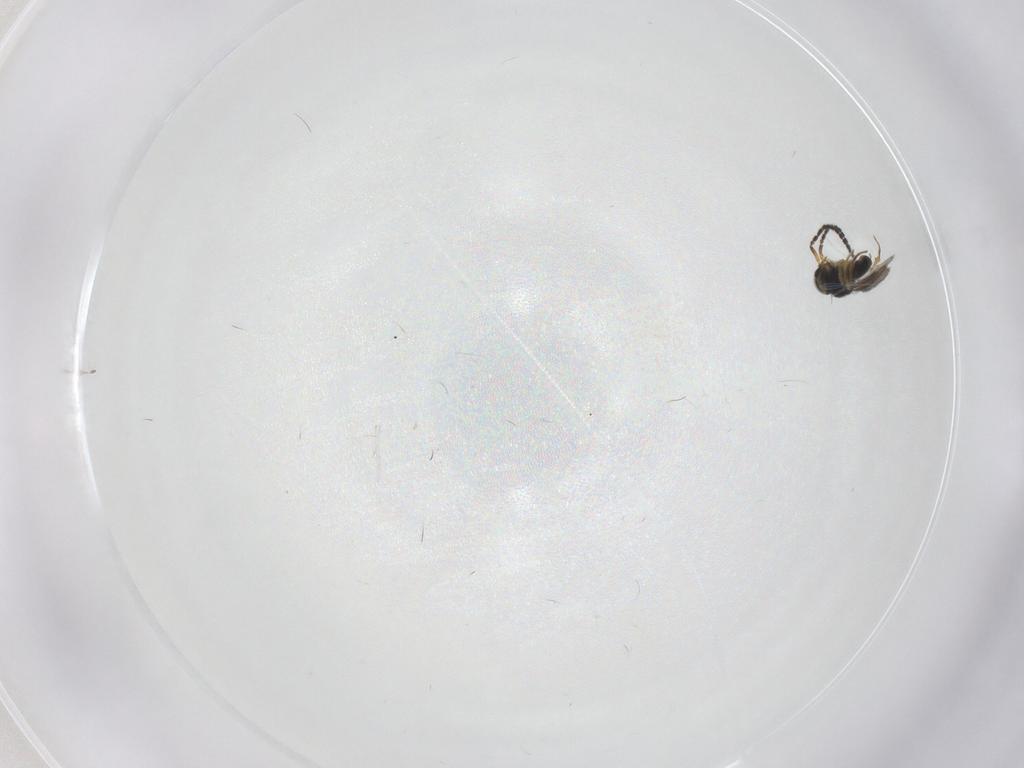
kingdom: Animalia
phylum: Arthropoda
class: Insecta
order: Hymenoptera
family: Scelionidae
